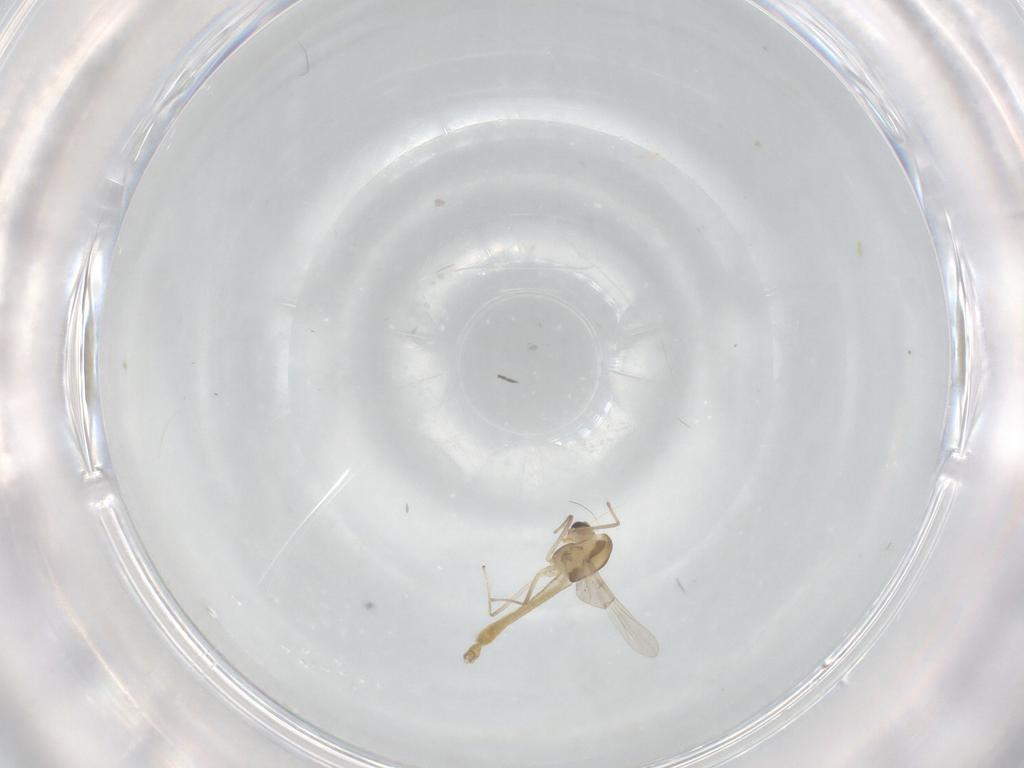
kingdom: Animalia
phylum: Arthropoda
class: Insecta
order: Diptera
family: Chironomidae
